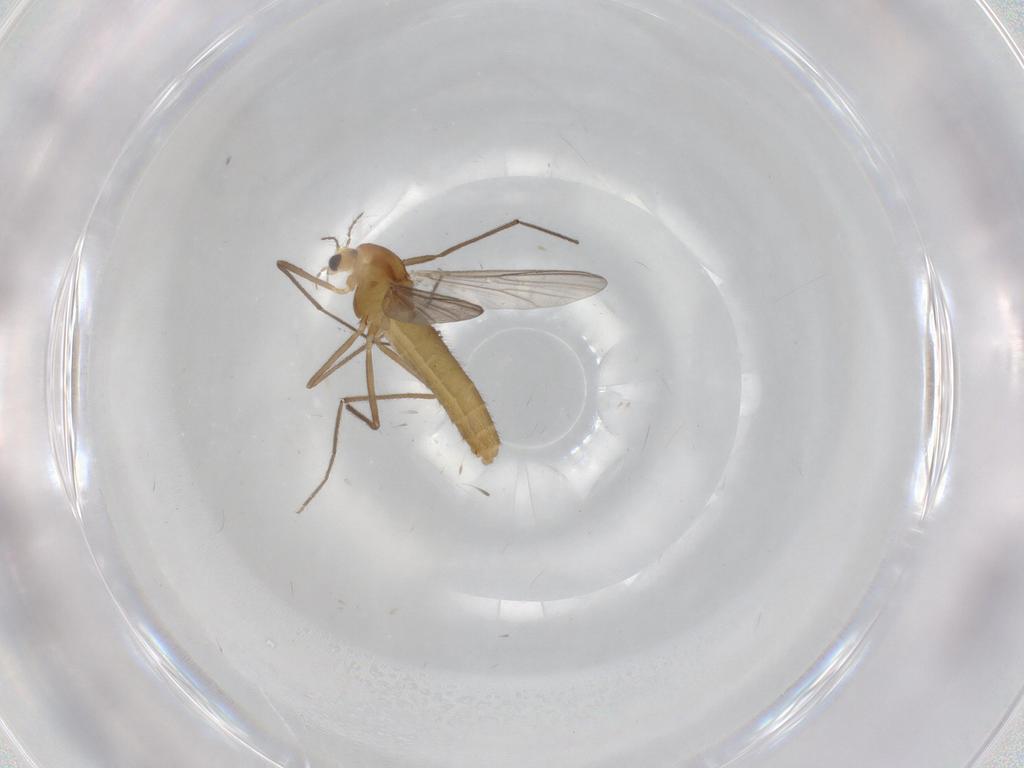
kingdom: Animalia
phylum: Arthropoda
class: Insecta
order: Diptera
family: Chironomidae
